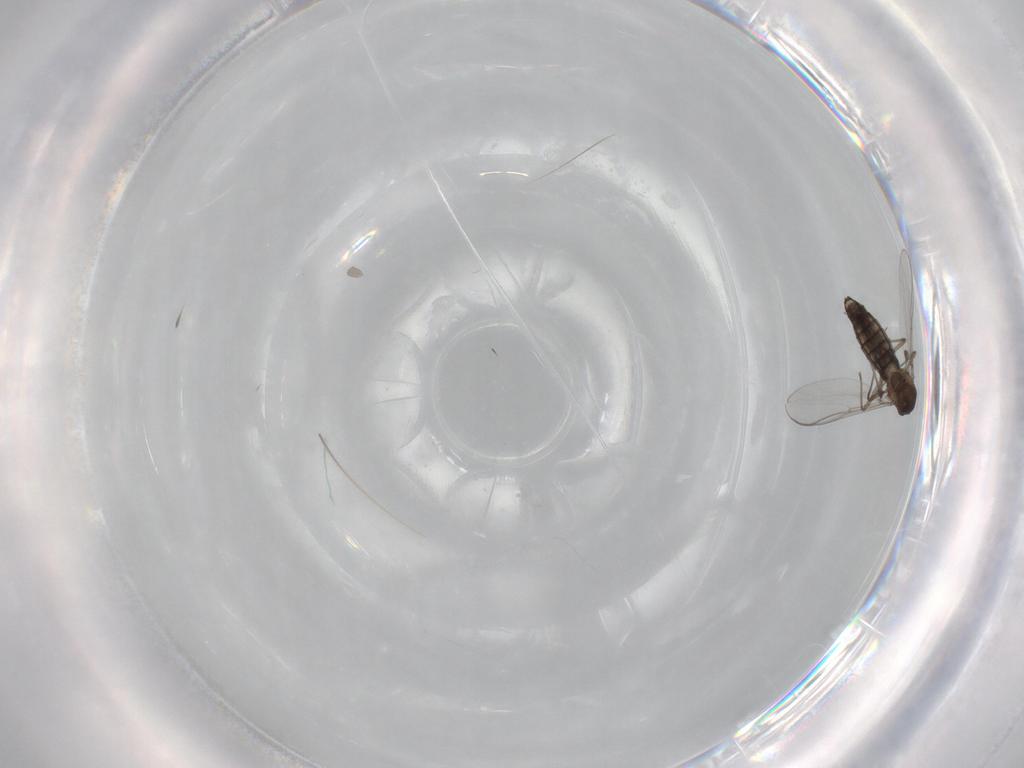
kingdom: Animalia
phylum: Arthropoda
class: Insecta
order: Diptera
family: Chironomidae
